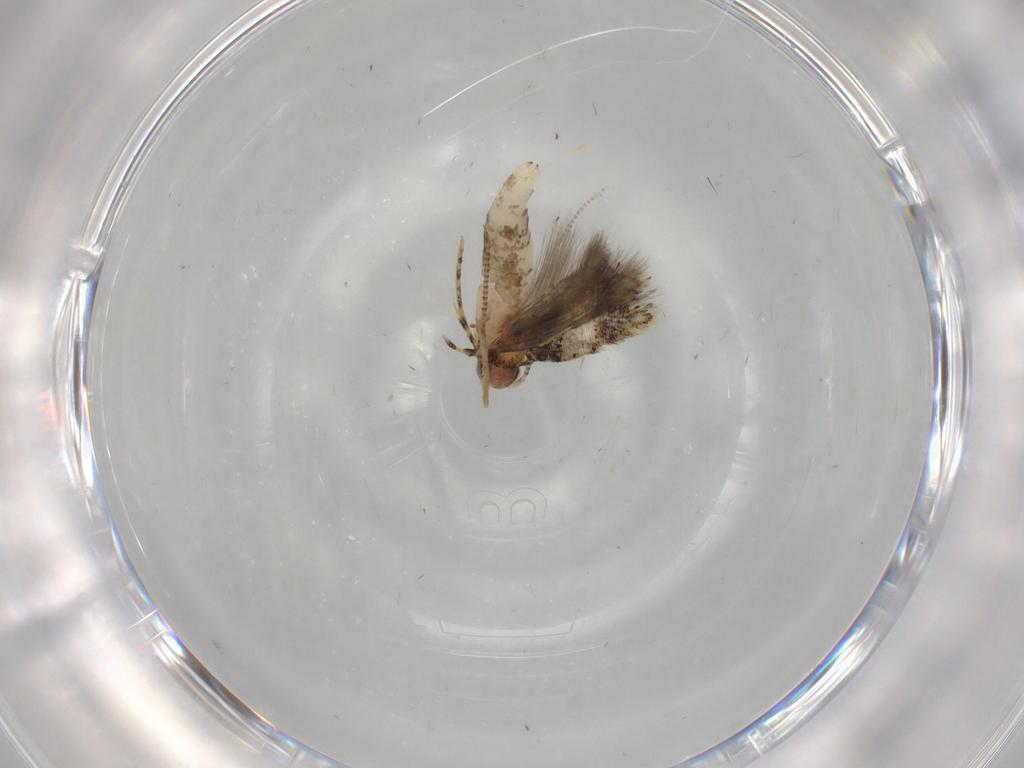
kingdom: Animalia
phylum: Arthropoda
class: Insecta
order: Lepidoptera
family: Tineidae
